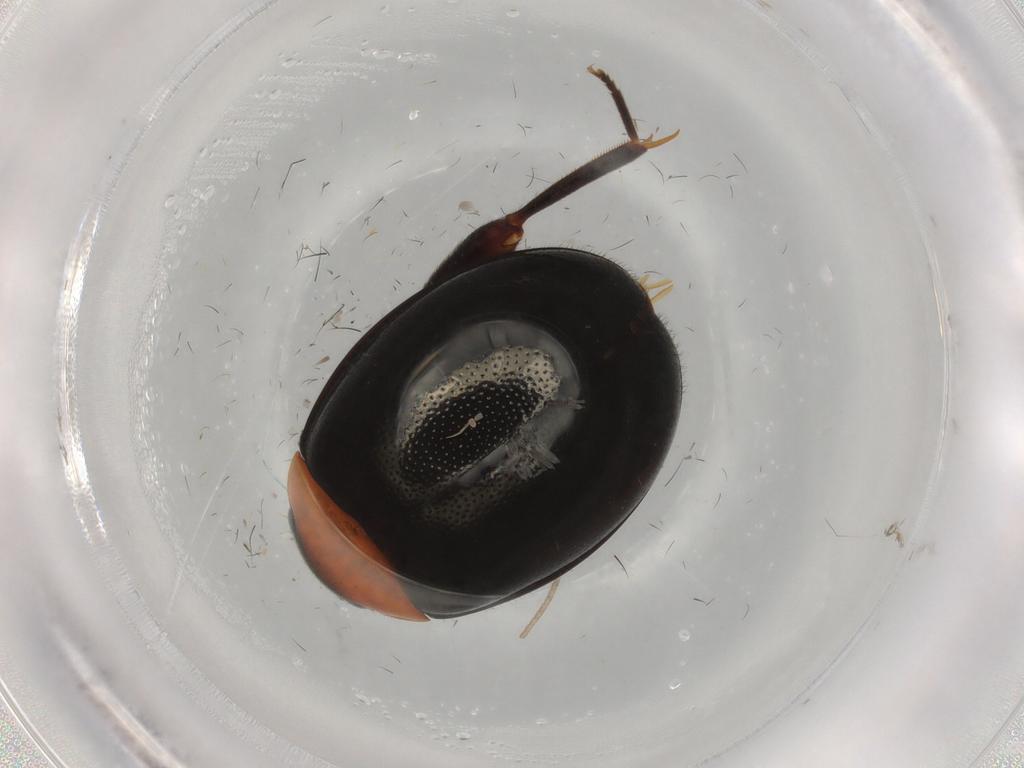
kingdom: Animalia
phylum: Arthropoda
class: Insecta
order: Coleoptera
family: Scirtidae
